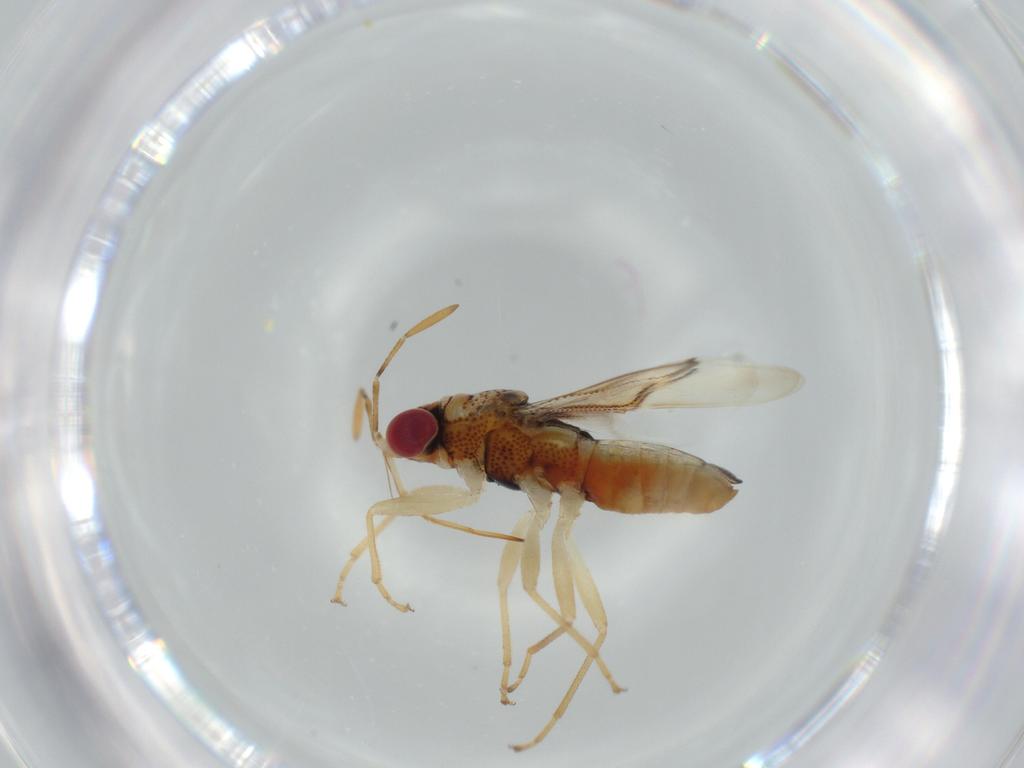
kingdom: Animalia
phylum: Arthropoda
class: Insecta
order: Hemiptera
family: Geocoridae
